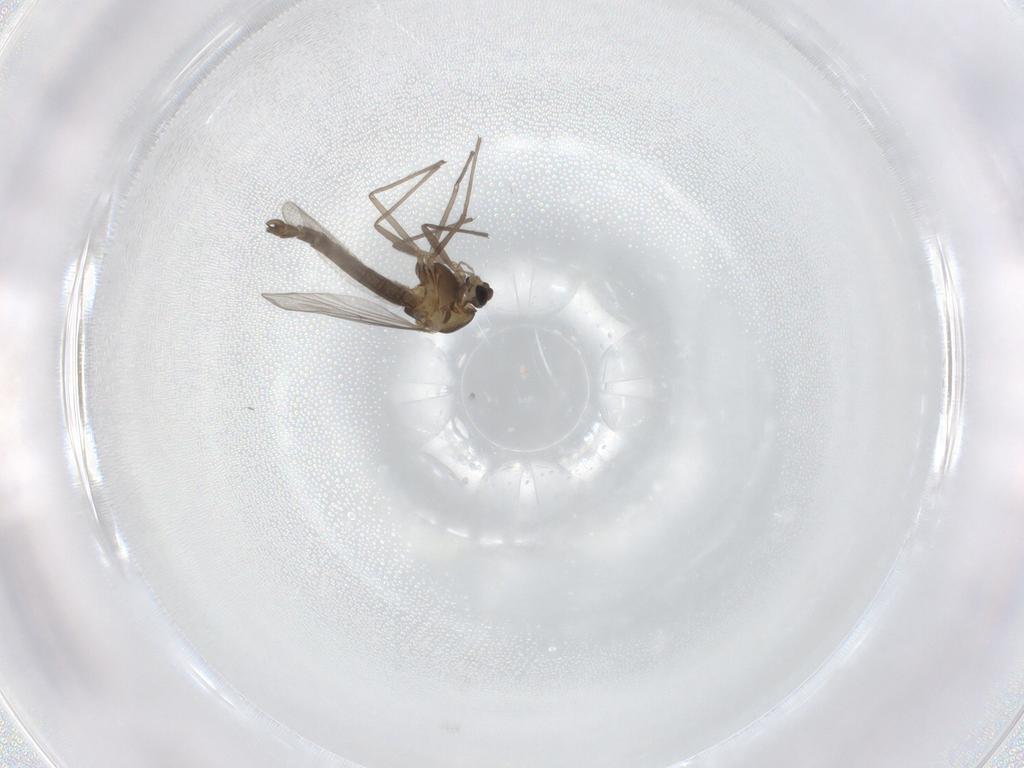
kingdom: Animalia
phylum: Arthropoda
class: Insecta
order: Diptera
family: Chironomidae
